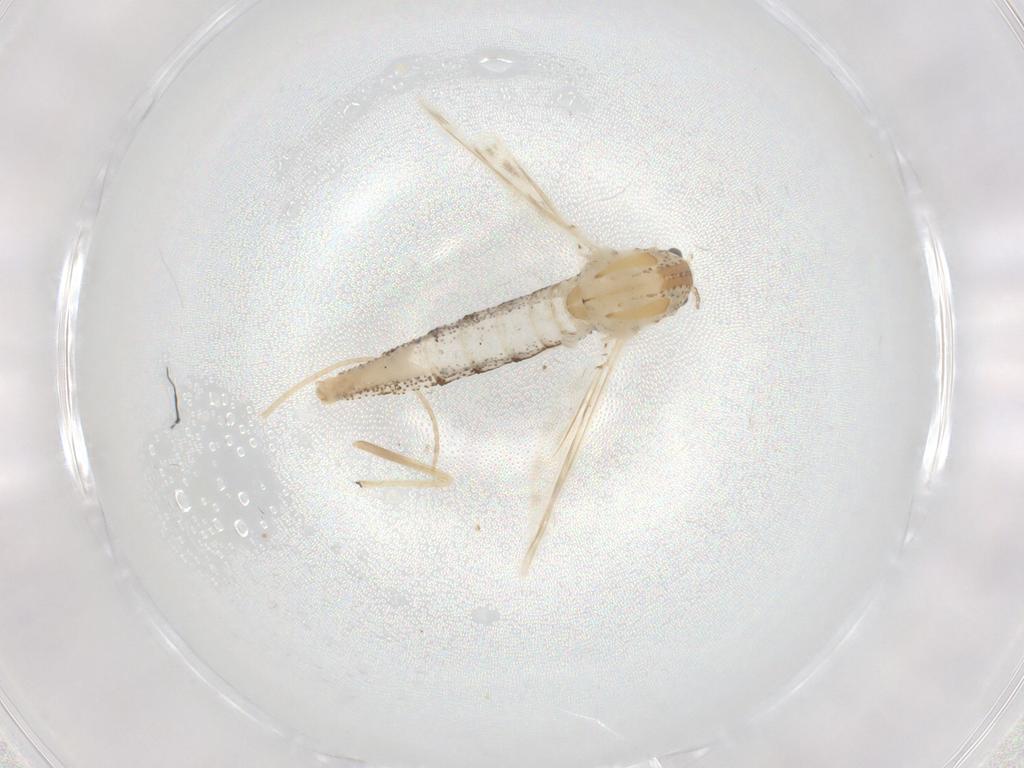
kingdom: Animalia
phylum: Arthropoda
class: Insecta
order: Diptera
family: Chaoboridae
